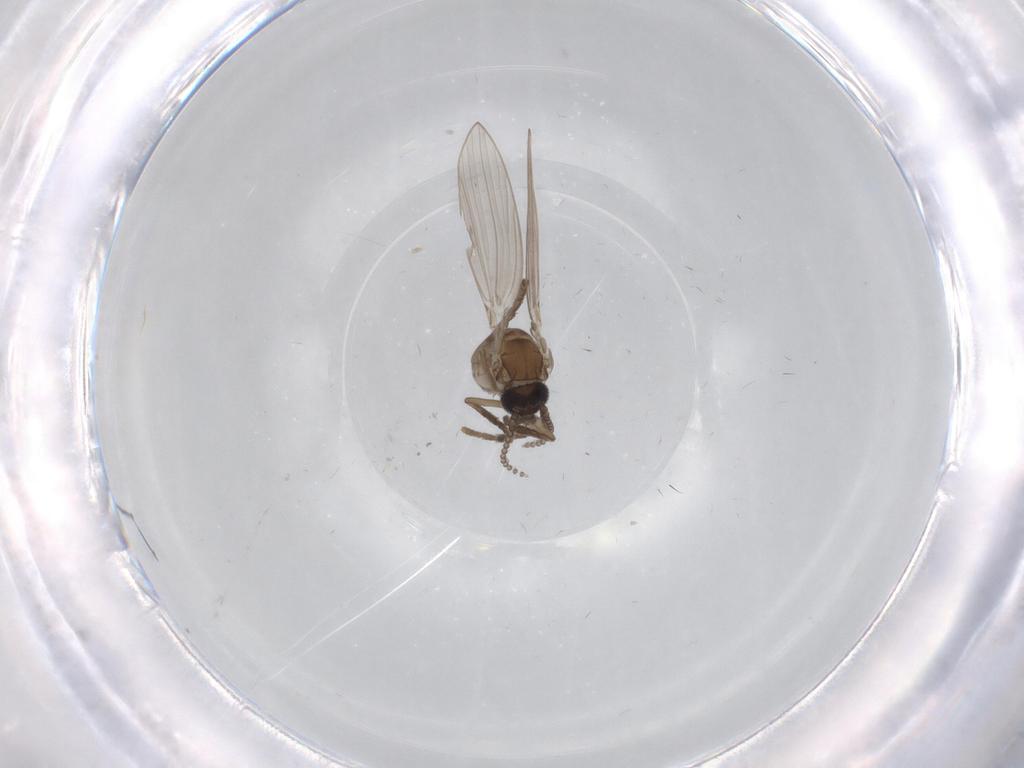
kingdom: Animalia
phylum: Arthropoda
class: Insecta
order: Diptera
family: Psychodidae
